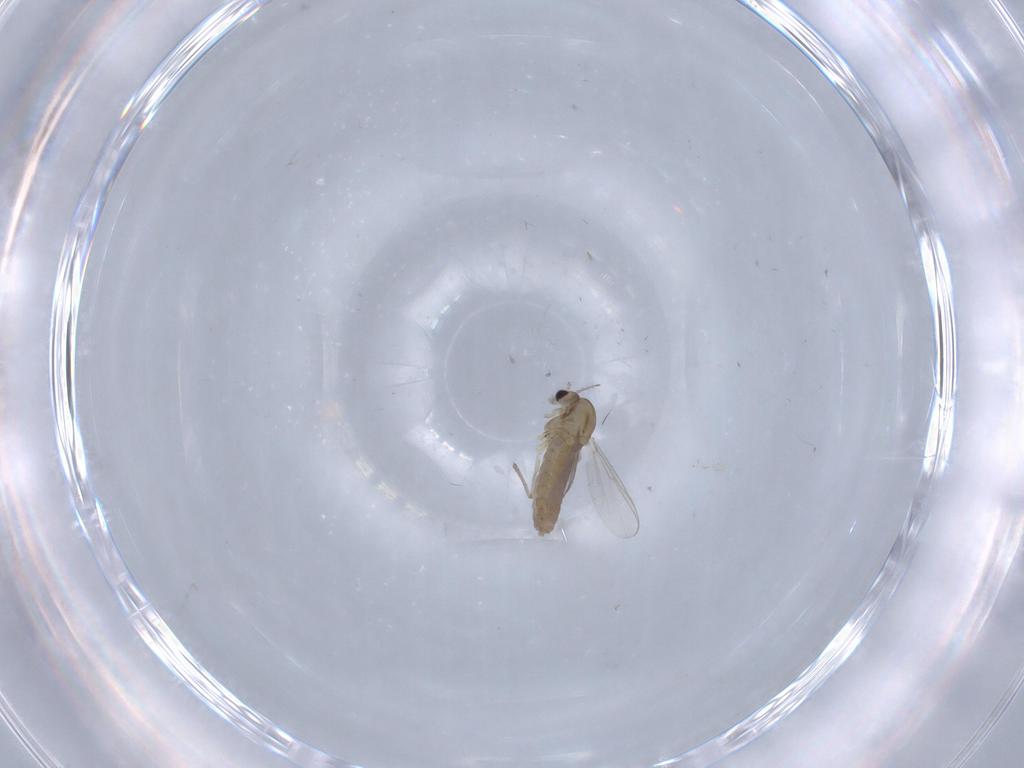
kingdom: Animalia
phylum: Arthropoda
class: Insecta
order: Diptera
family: Chironomidae
